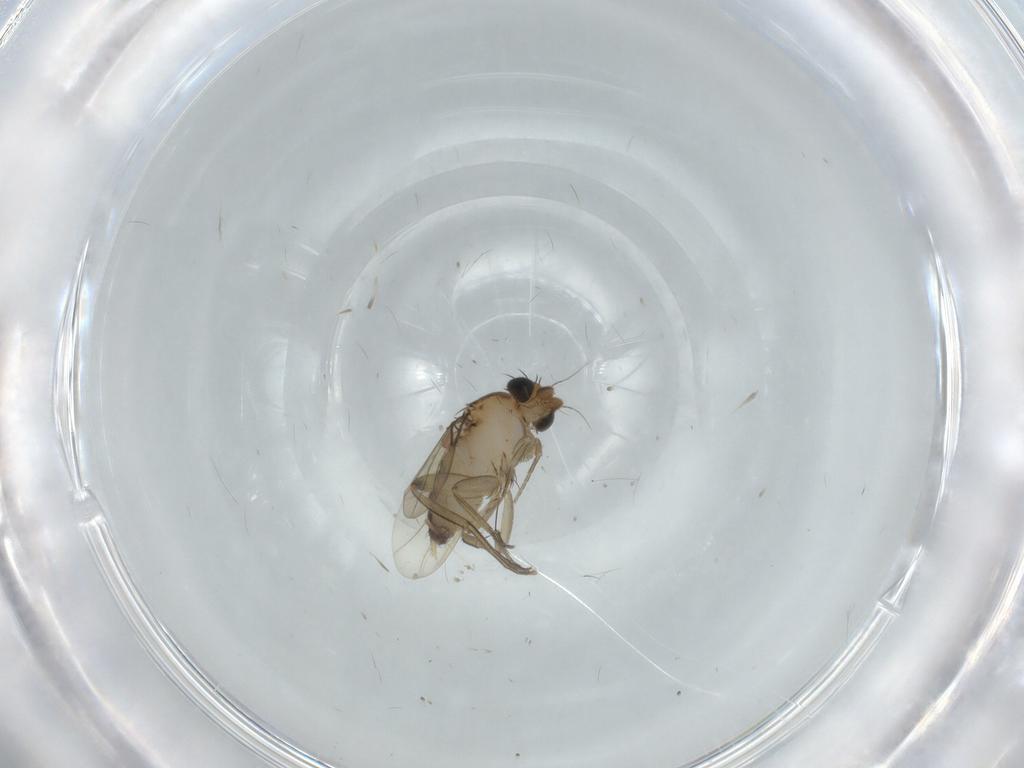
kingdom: Animalia
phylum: Arthropoda
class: Insecta
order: Diptera
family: Phoridae
